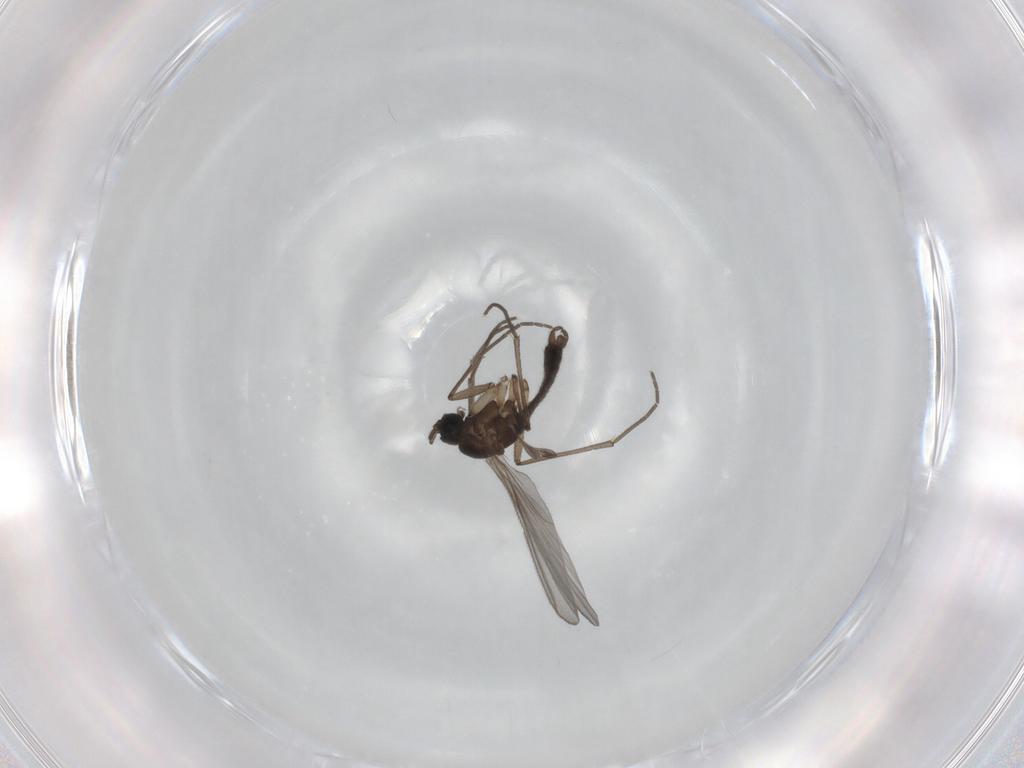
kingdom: Animalia
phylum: Arthropoda
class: Insecta
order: Diptera
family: Sciaridae
